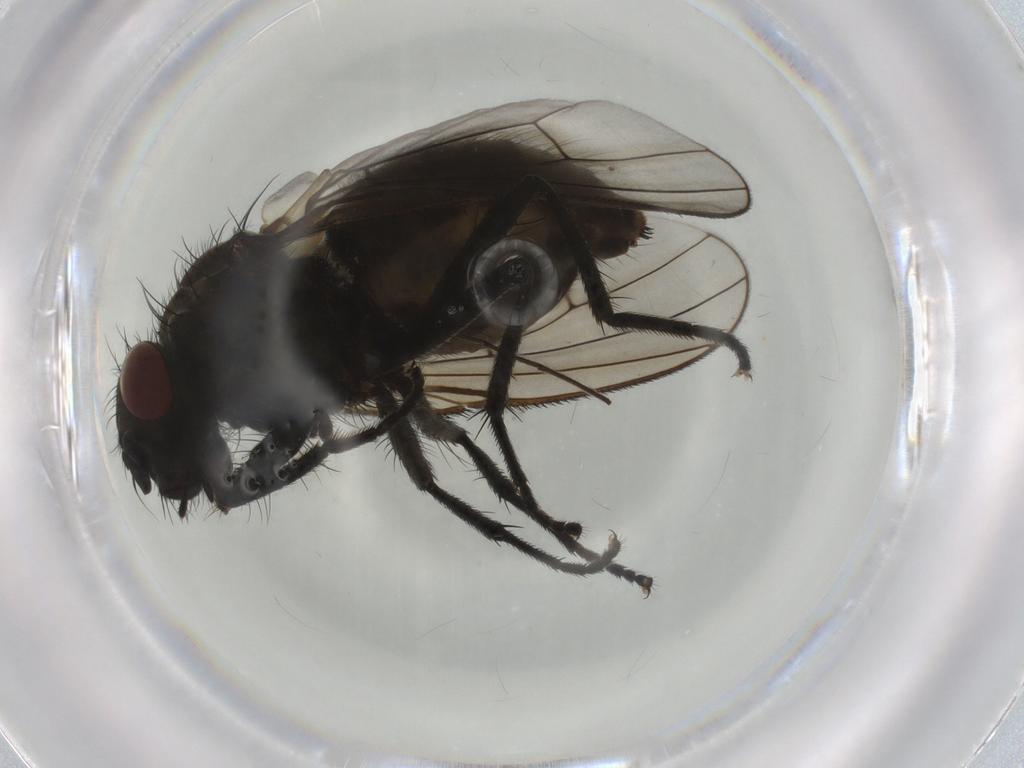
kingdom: Animalia
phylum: Arthropoda
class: Insecta
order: Diptera
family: Muscidae
